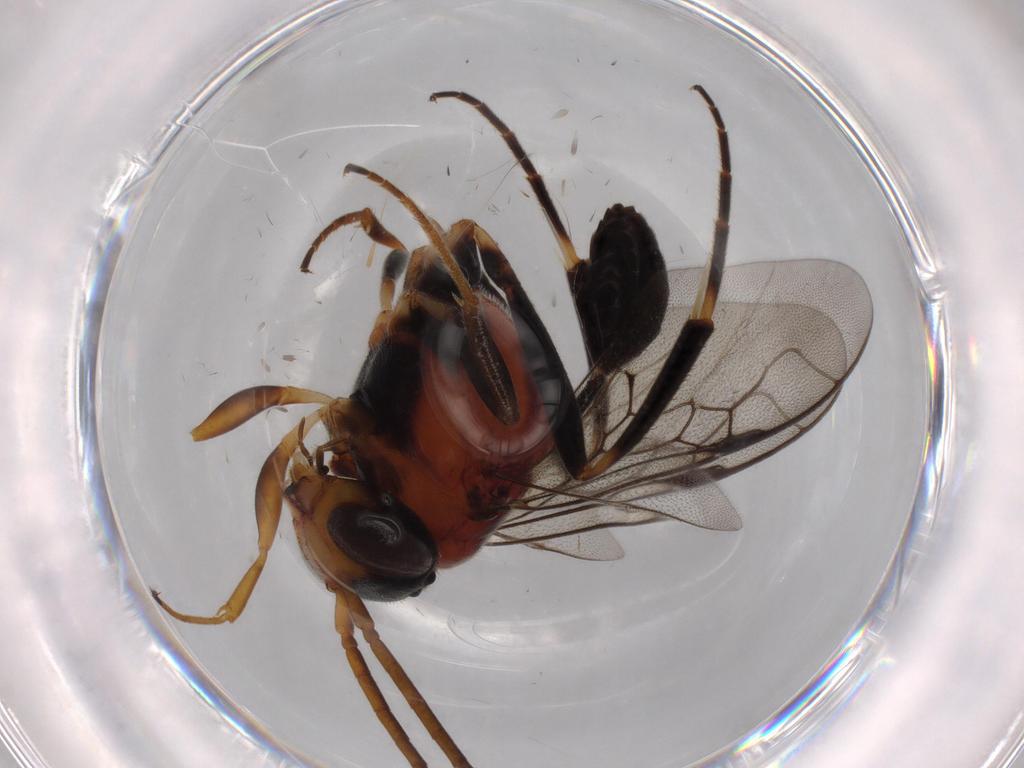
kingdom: Animalia
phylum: Arthropoda
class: Insecta
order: Hymenoptera
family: Evaniidae
